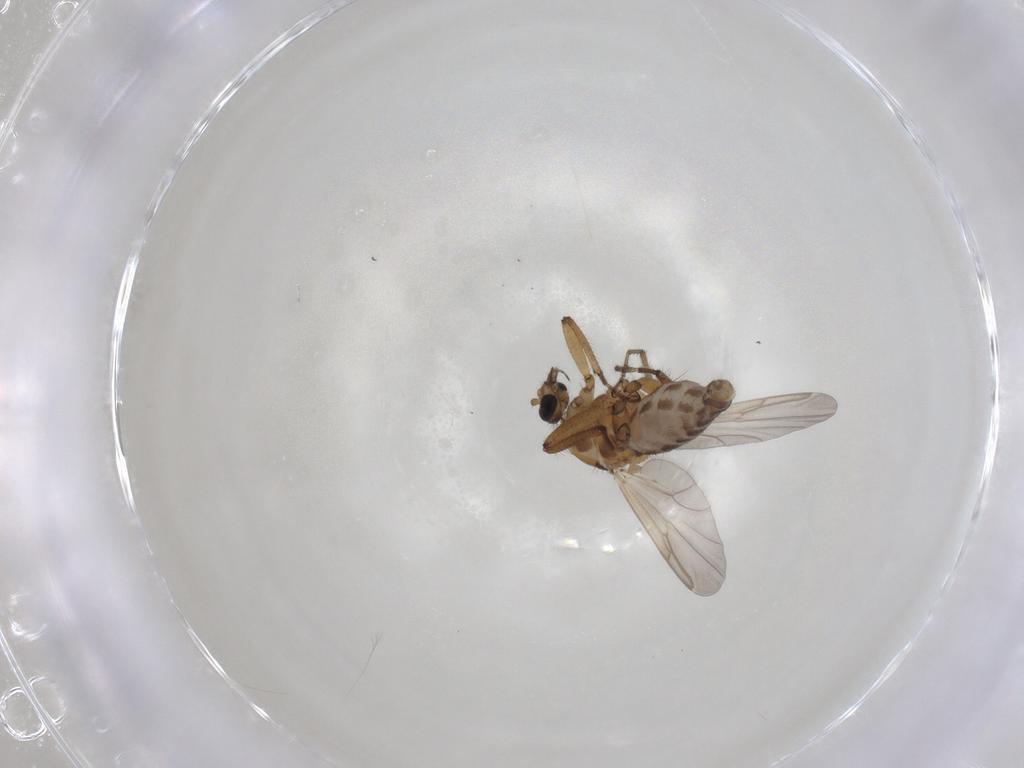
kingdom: Animalia
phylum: Arthropoda
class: Insecta
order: Diptera
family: Ceratopogonidae
